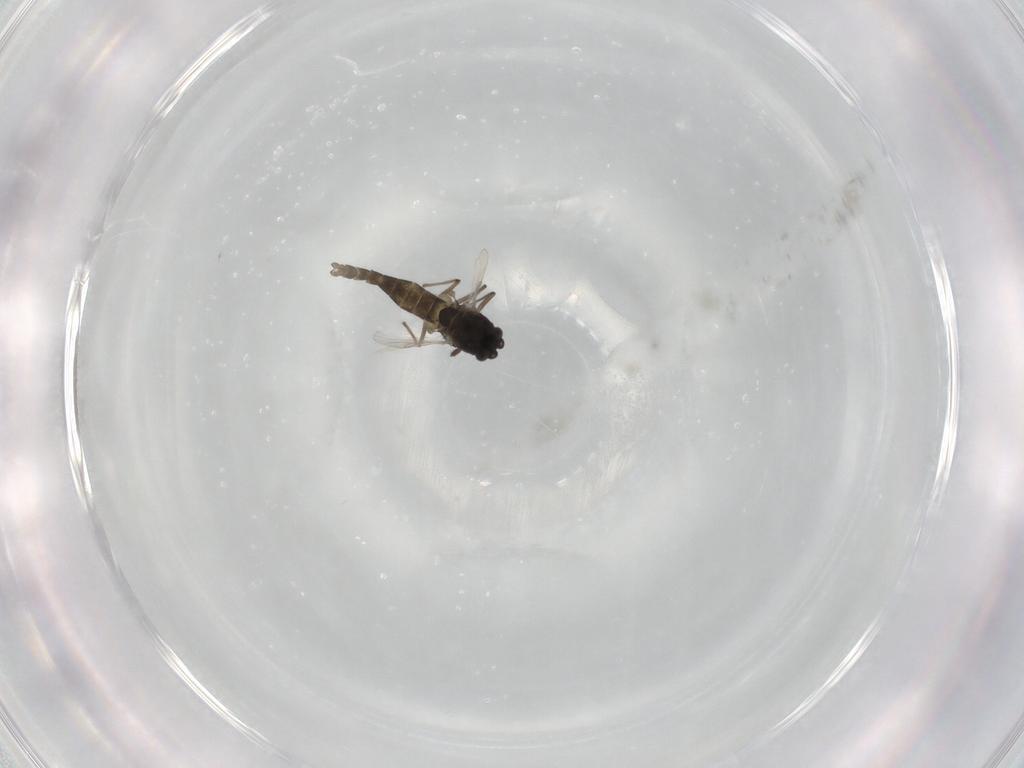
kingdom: Animalia
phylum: Arthropoda
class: Insecta
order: Diptera
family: Chironomidae
